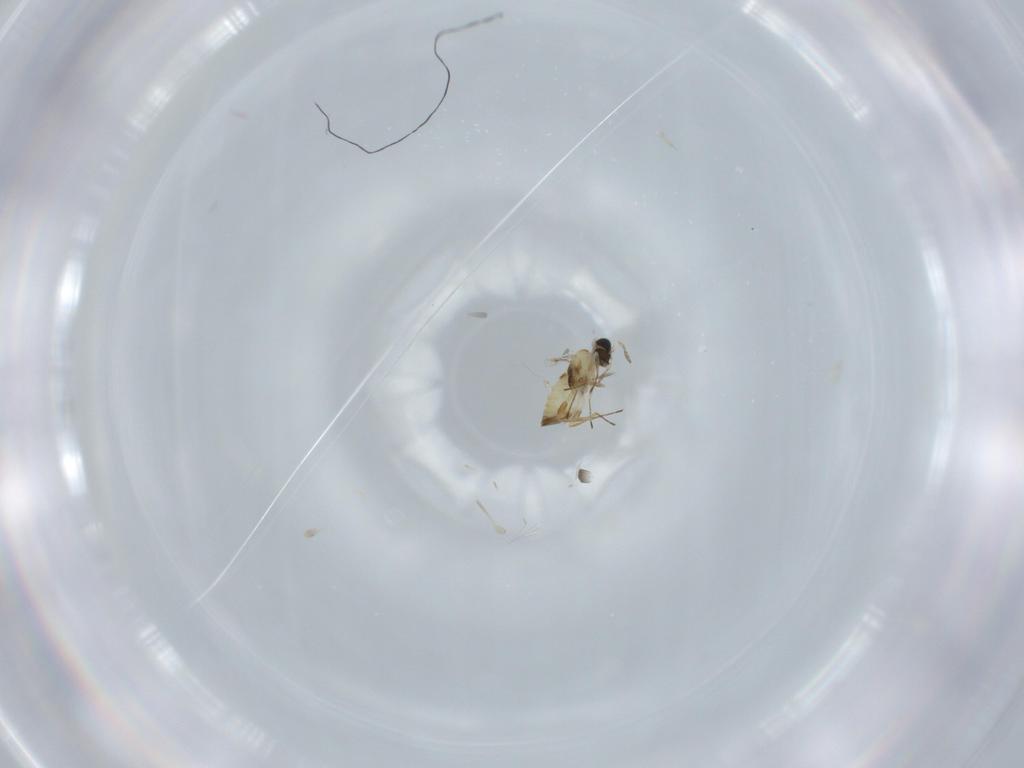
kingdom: Animalia
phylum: Arthropoda
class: Insecta
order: Hymenoptera
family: Trichogrammatidae
